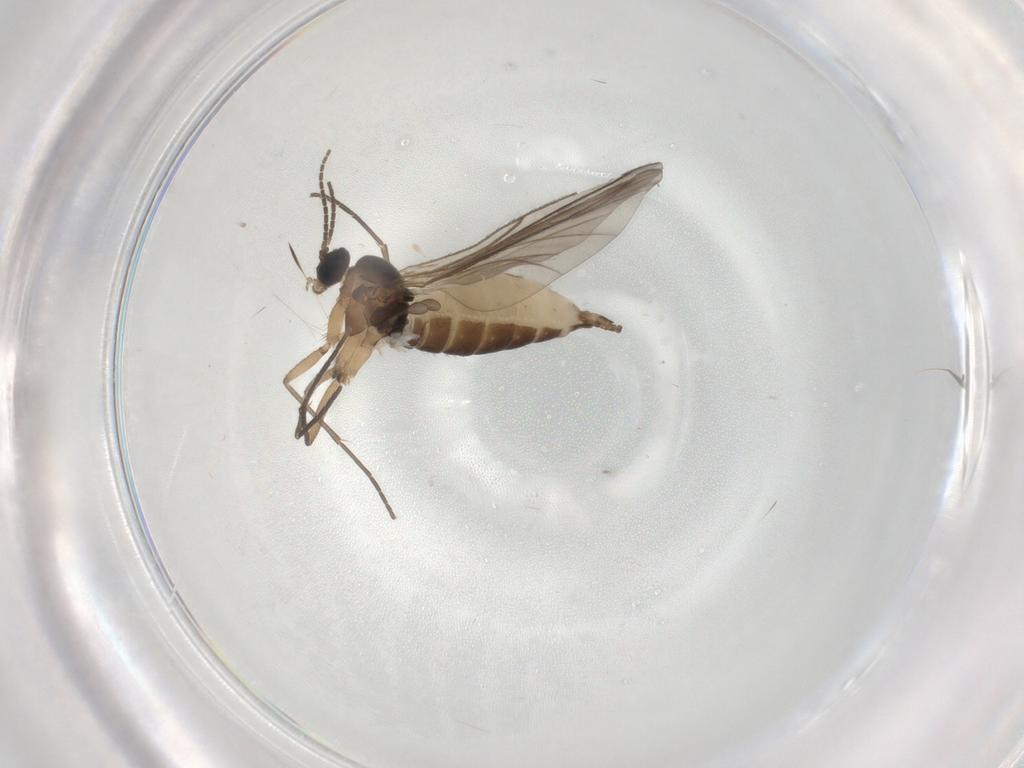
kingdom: Animalia
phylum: Arthropoda
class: Insecta
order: Diptera
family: Sciaridae
